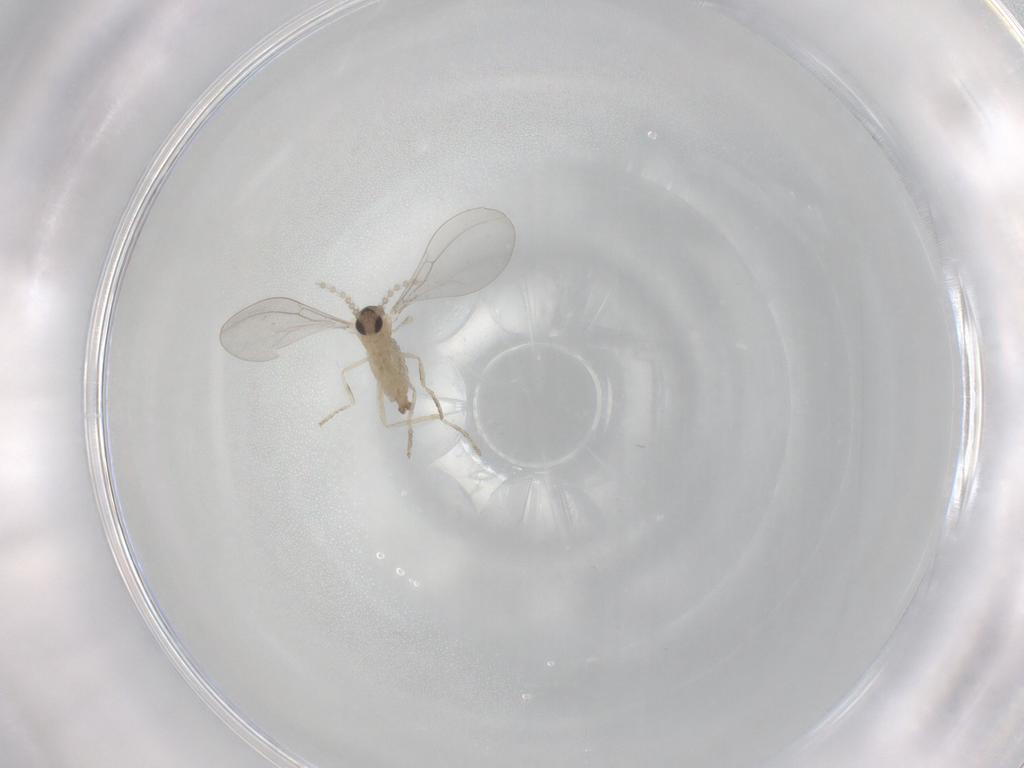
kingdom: Animalia
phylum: Arthropoda
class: Insecta
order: Diptera
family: Cecidomyiidae
